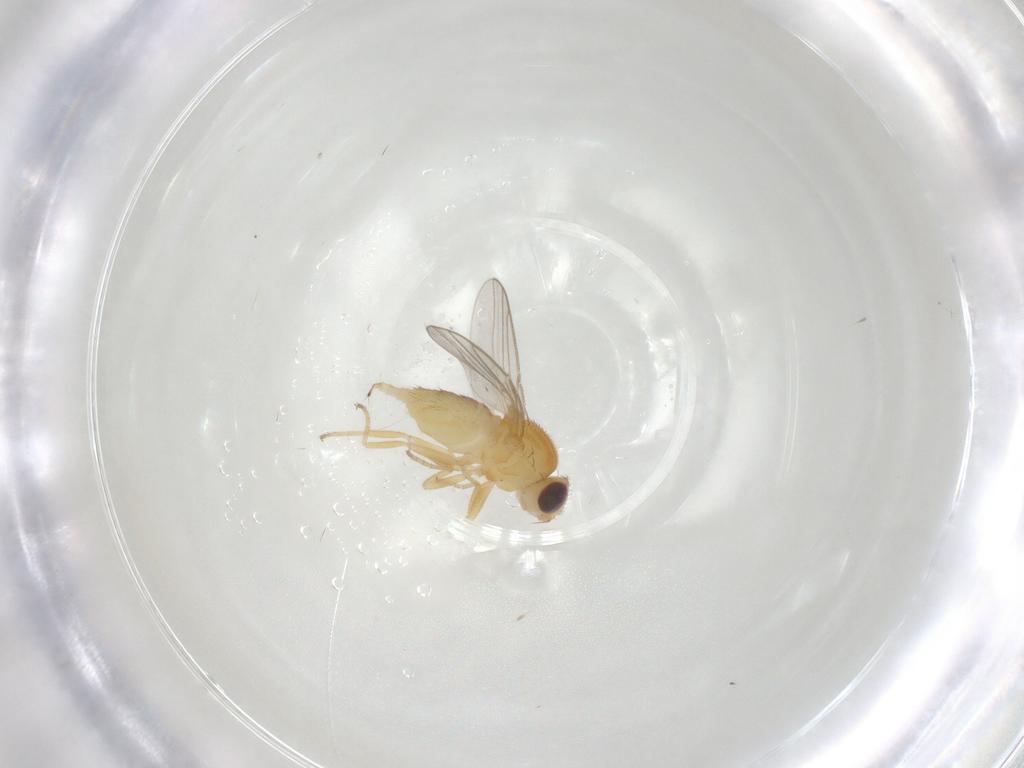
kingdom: Animalia
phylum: Arthropoda
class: Insecta
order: Diptera
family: Chloropidae
